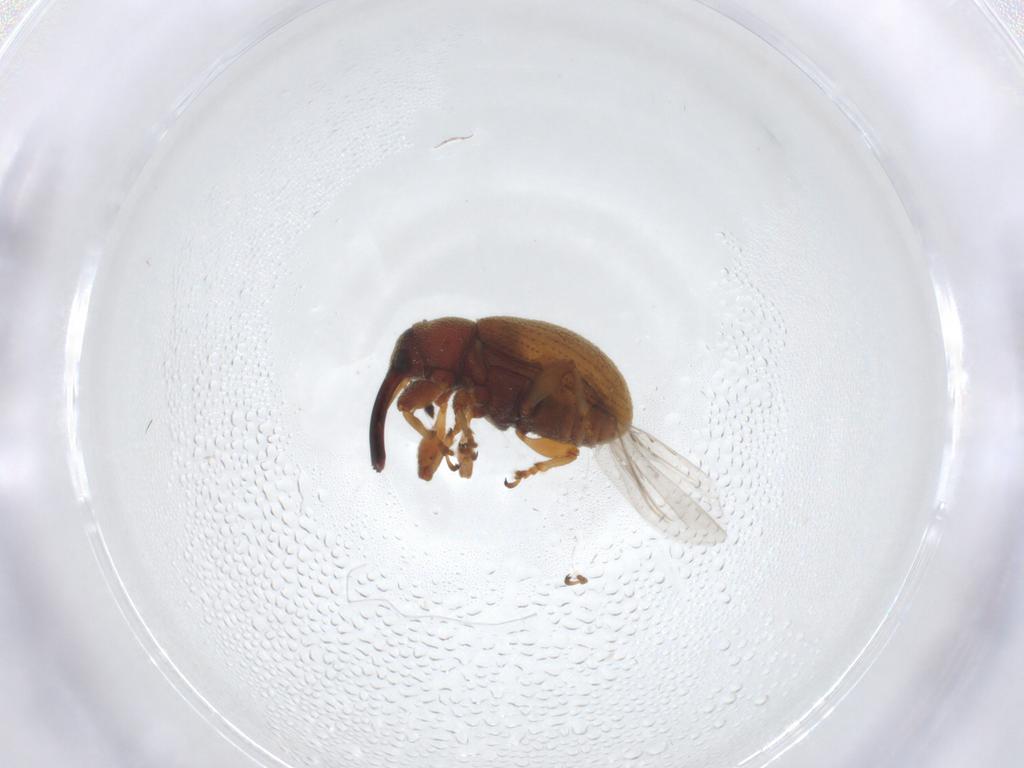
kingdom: Animalia
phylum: Arthropoda
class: Insecta
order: Coleoptera
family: Curculionidae
